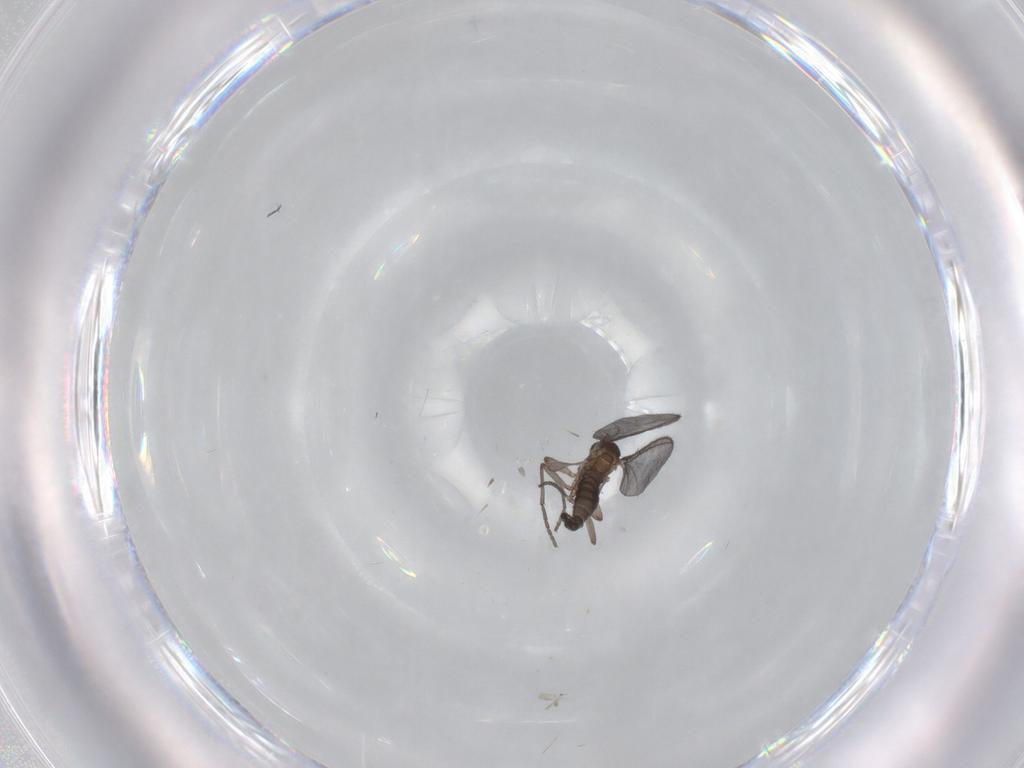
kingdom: Animalia
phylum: Arthropoda
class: Insecta
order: Diptera
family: Sciaridae
